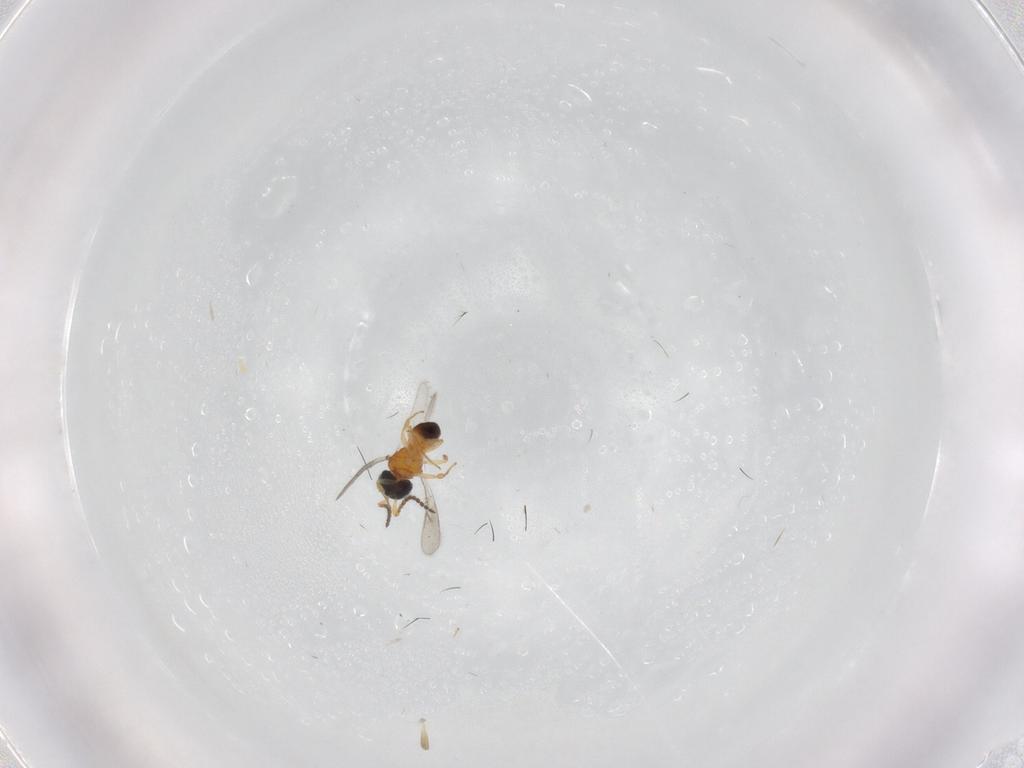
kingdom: Animalia
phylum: Arthropoda
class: Insecta
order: Hymenoptera
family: Scelionidae
